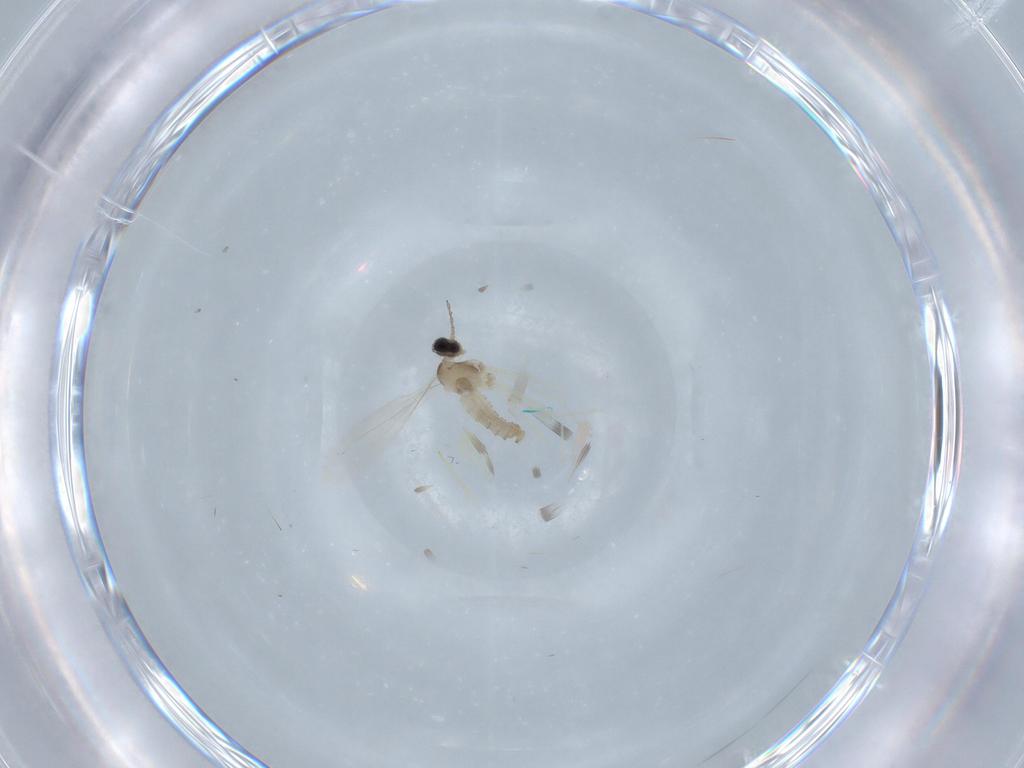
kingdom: Animalia
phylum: Arthropoda
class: Insecta
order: Diptera
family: Cecidomyiidae
